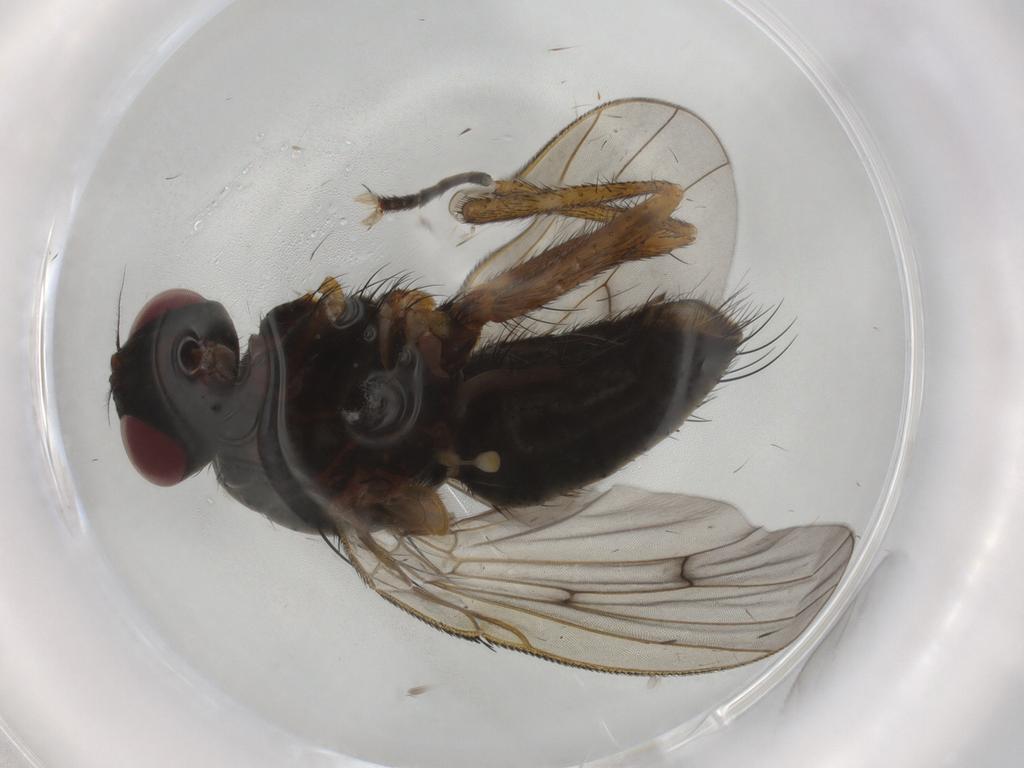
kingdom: Animalia
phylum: Arthropoda
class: Insecta
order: Diptera
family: Muscidae
